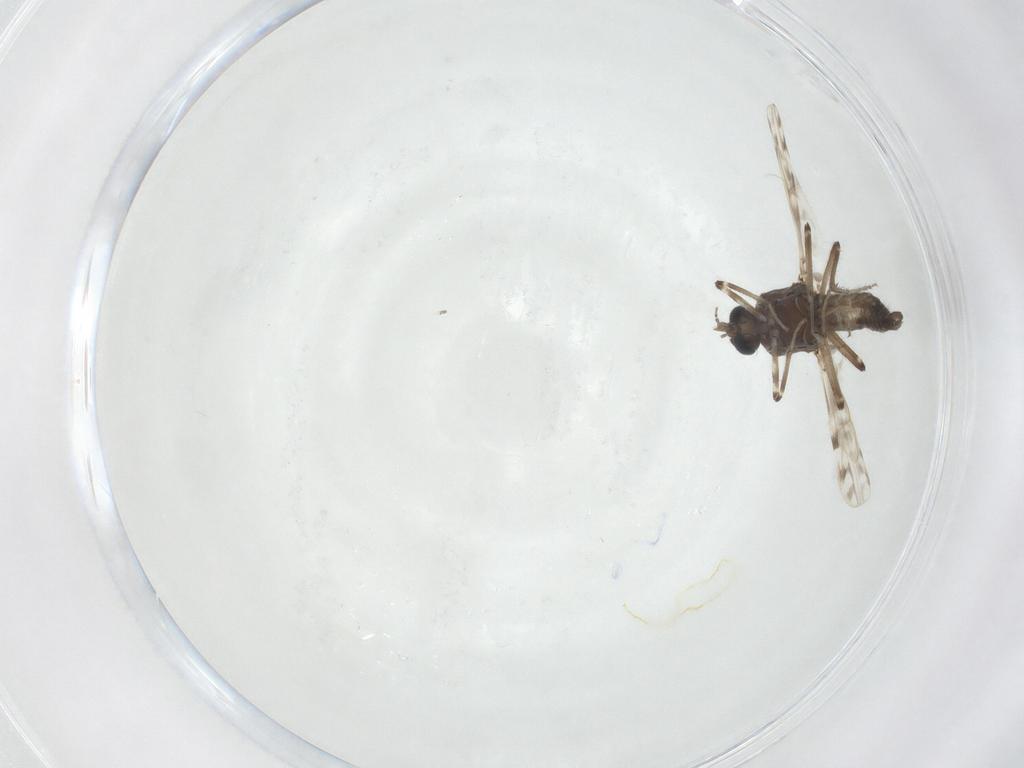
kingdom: Animalia
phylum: Arthropoda
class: Insecta
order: Diptera
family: Ceratopogonidae
